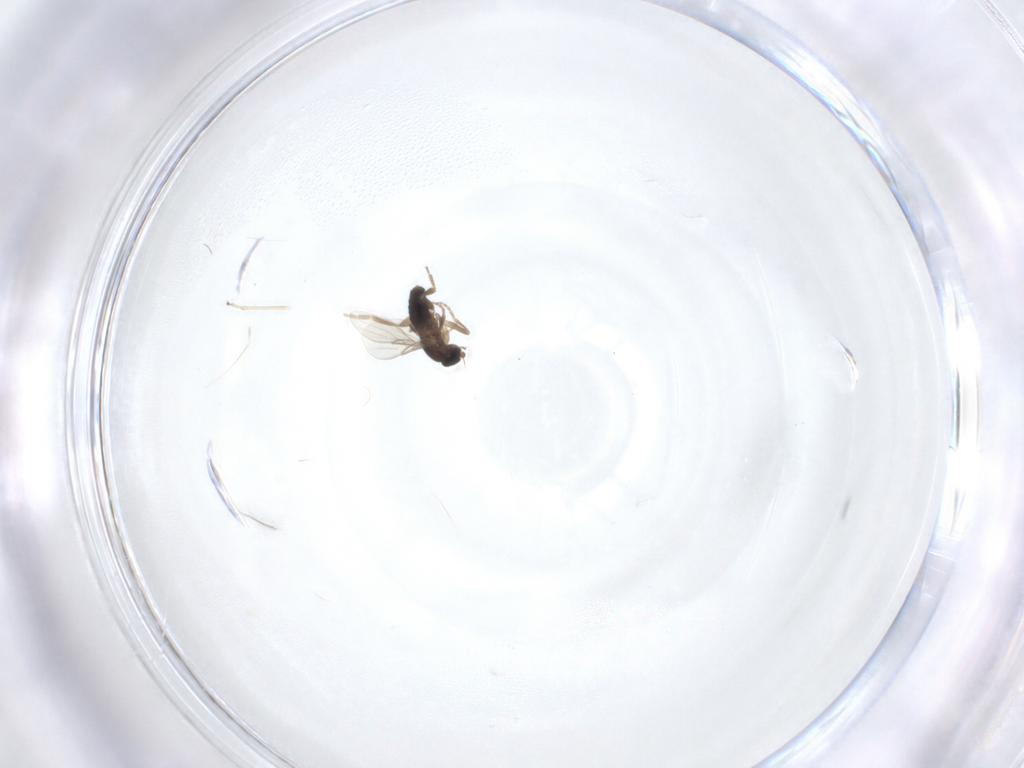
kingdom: Animalia
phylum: Arthropoda
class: Insecta
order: Diptera
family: Phoridae
